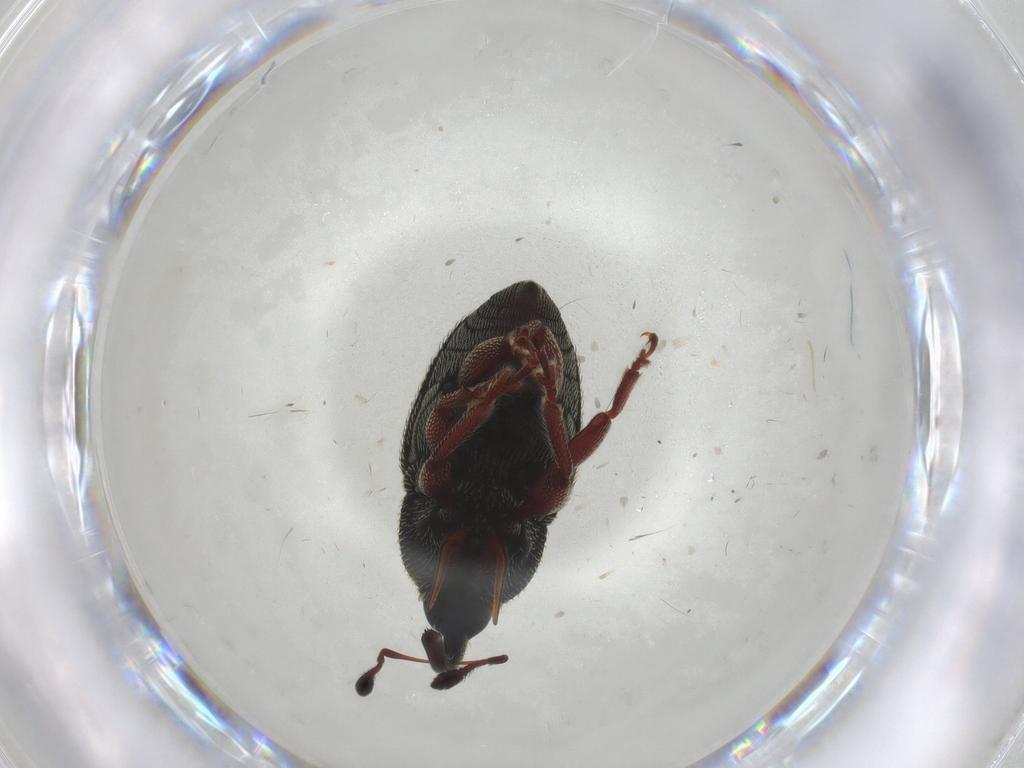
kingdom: Animalia
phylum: Arthropoda
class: Insecta
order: Coleoptera
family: Curculionidae
